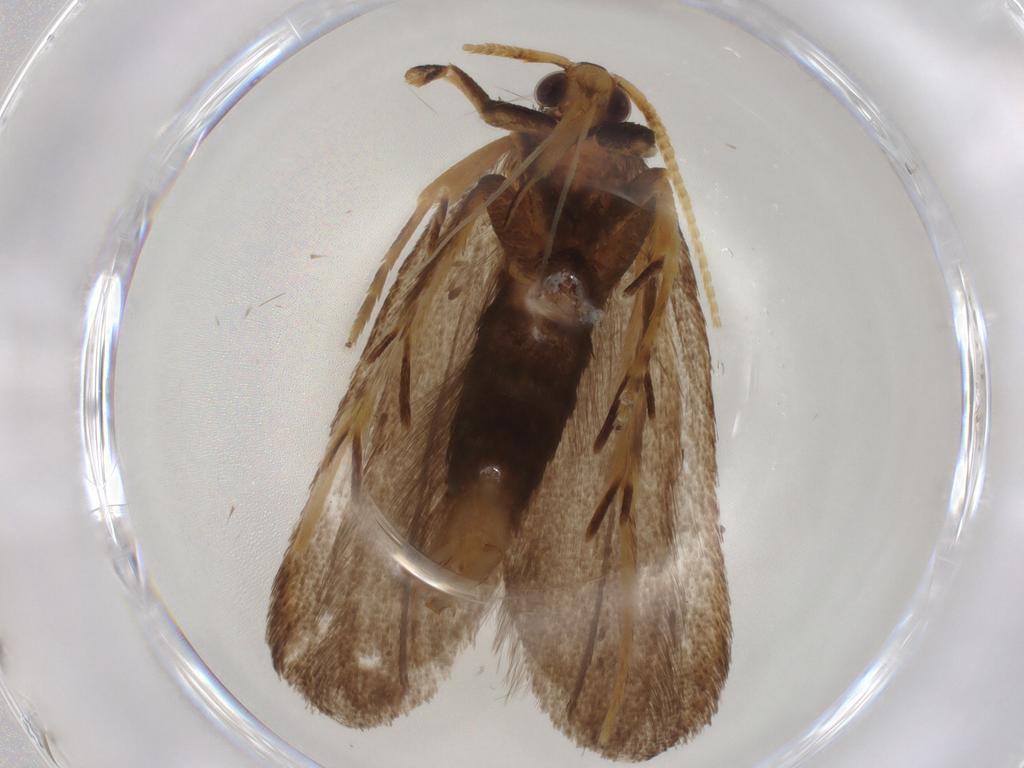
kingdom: Animalia
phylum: Arthropoda
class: Insecta
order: Lepidoptera
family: Lecithoceridae
